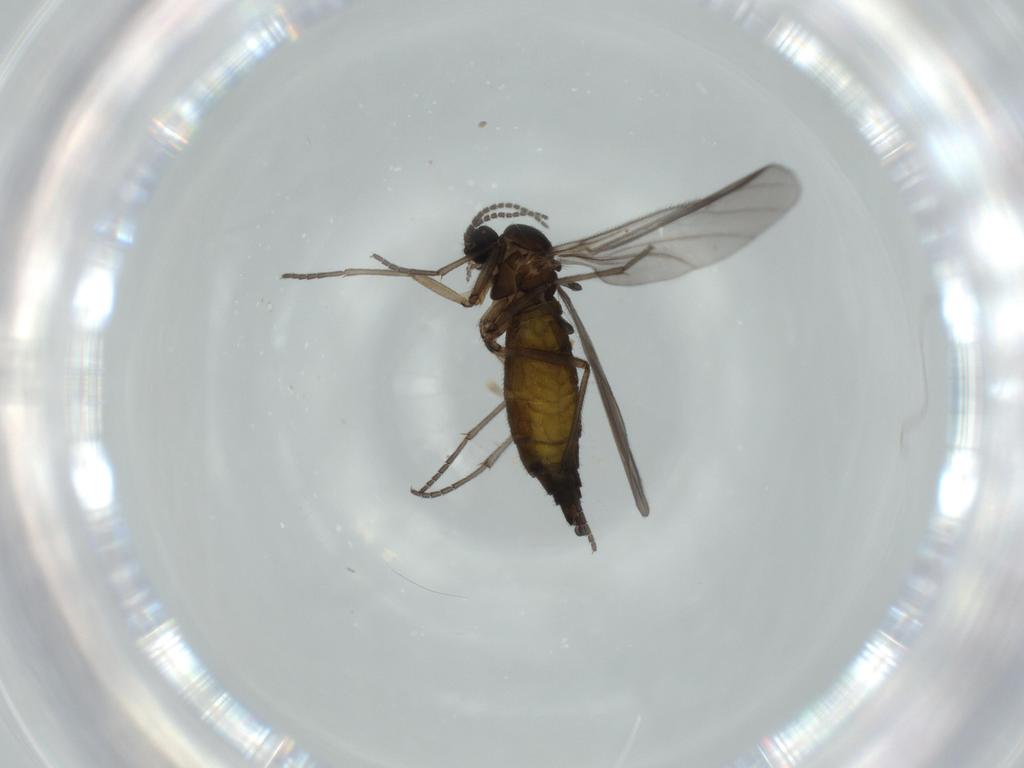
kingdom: Animalia
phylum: Arthropoda
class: Insecta
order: Diptera
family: Sciaridae
